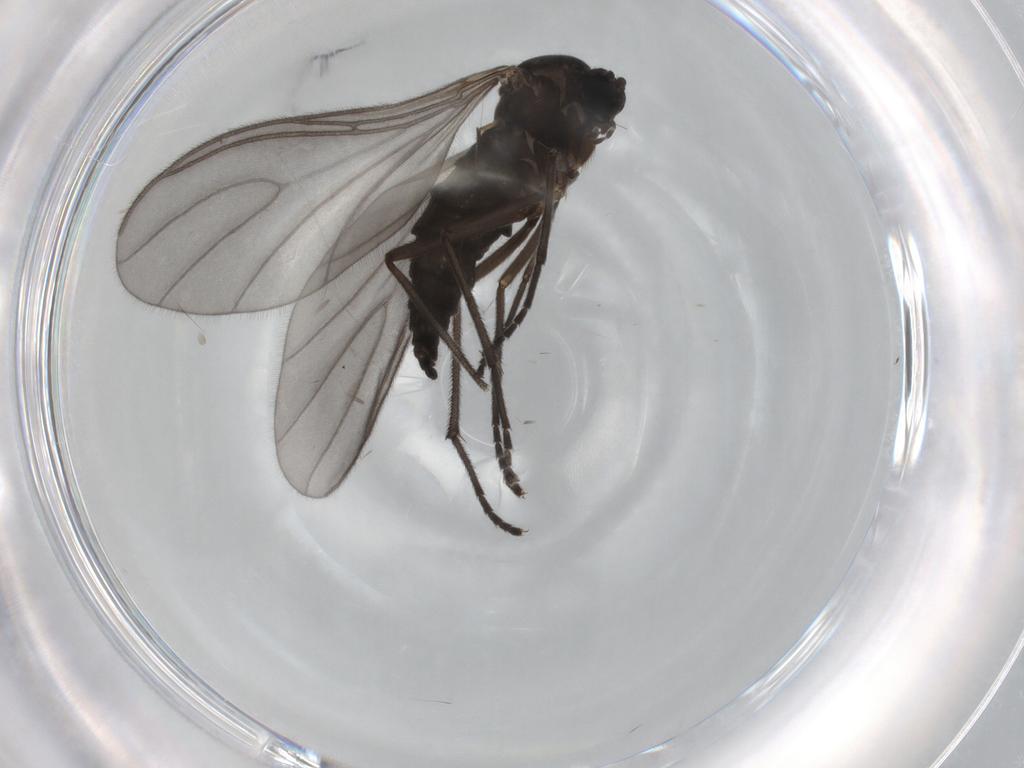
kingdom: Animalia
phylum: Arthropoda
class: Insecta
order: Diptera
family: Sciaridae
